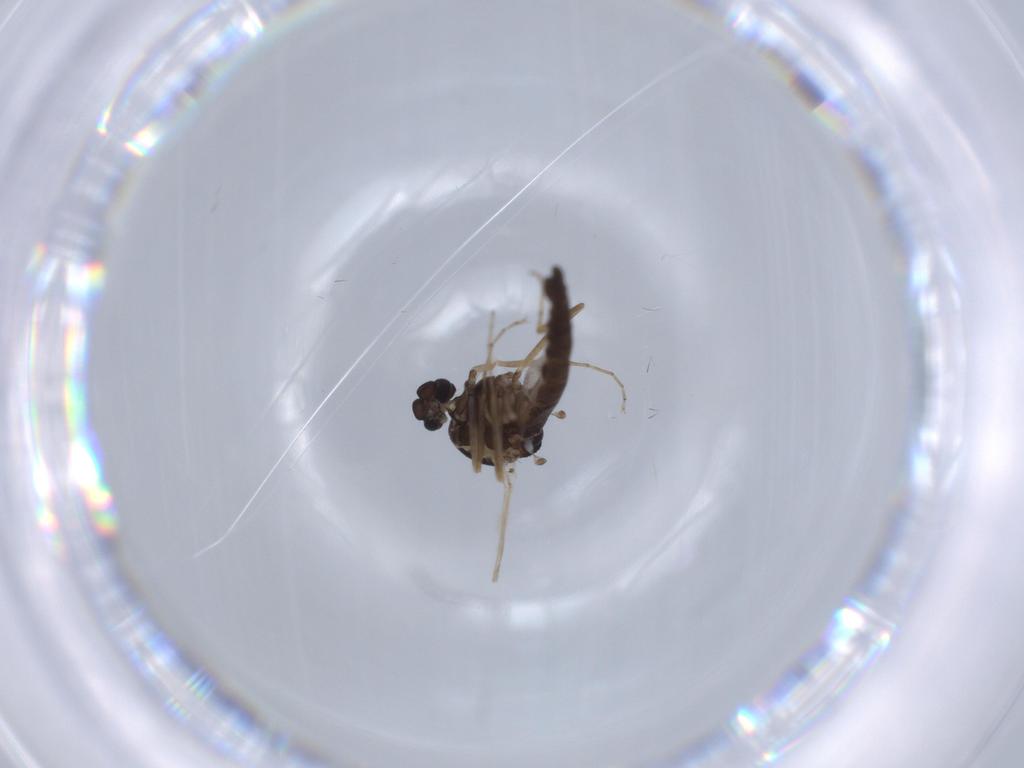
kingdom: Animalia
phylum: Arthropoda
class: Insecta
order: Diptera
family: Ceratopogonidae
